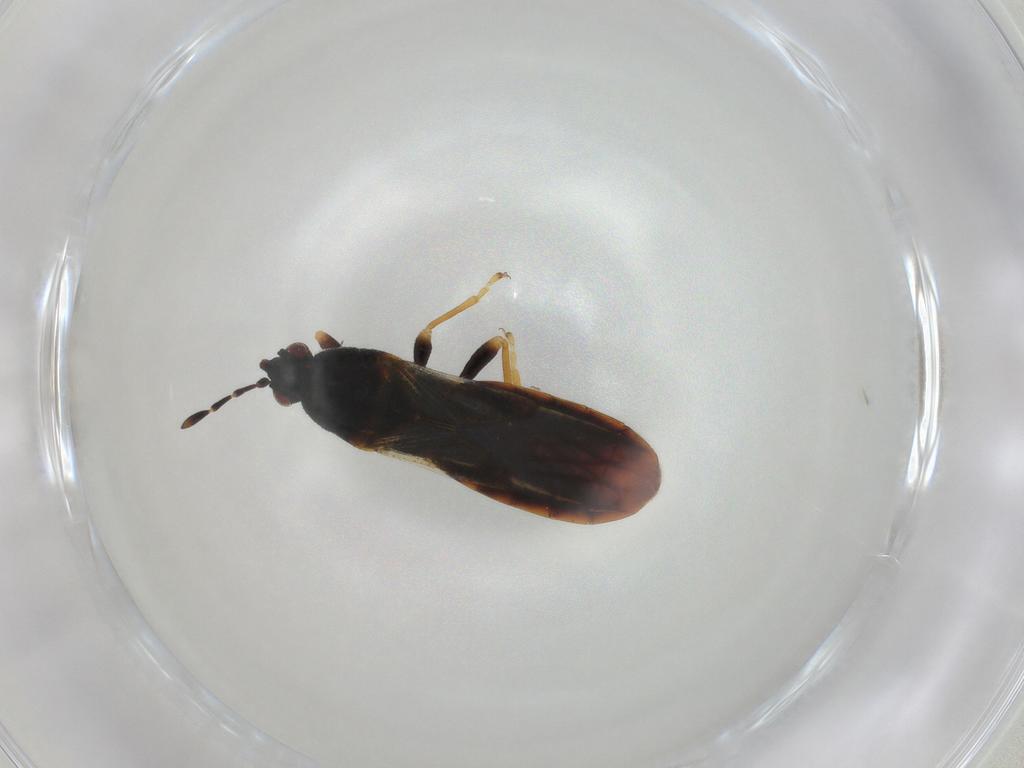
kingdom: Animalia
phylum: Arthropoda
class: Insecta
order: Hemiptera
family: Blissidae
